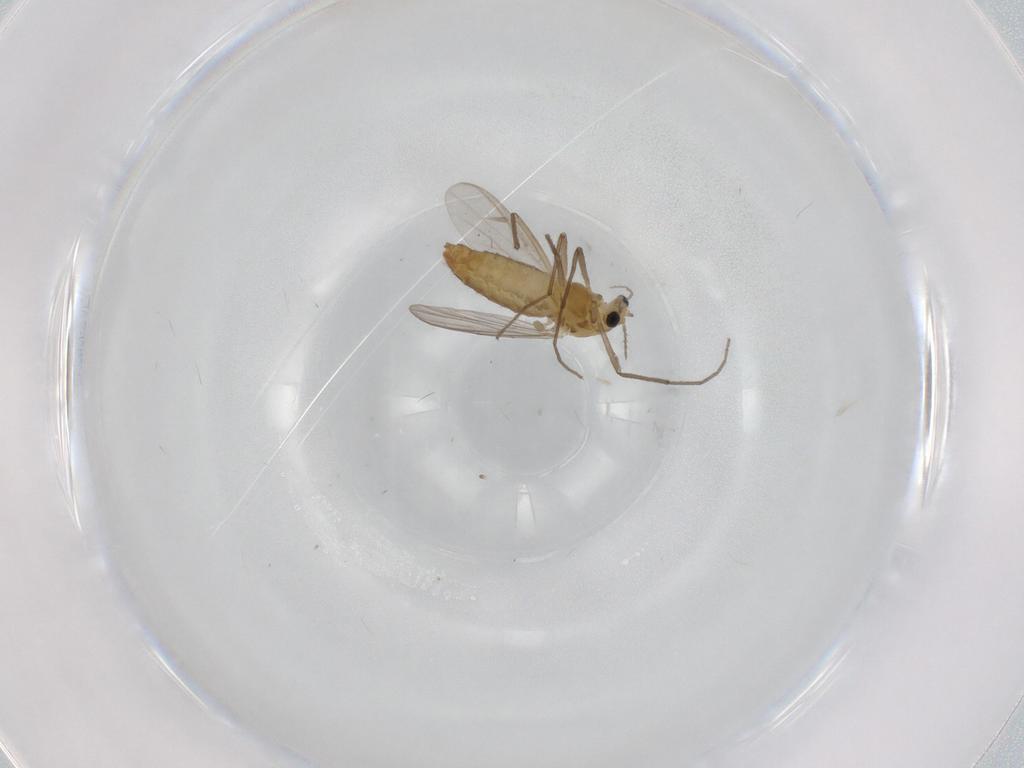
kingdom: Animalia
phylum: Arthropoda
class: Insecta
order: Diptera
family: Chironomidae
